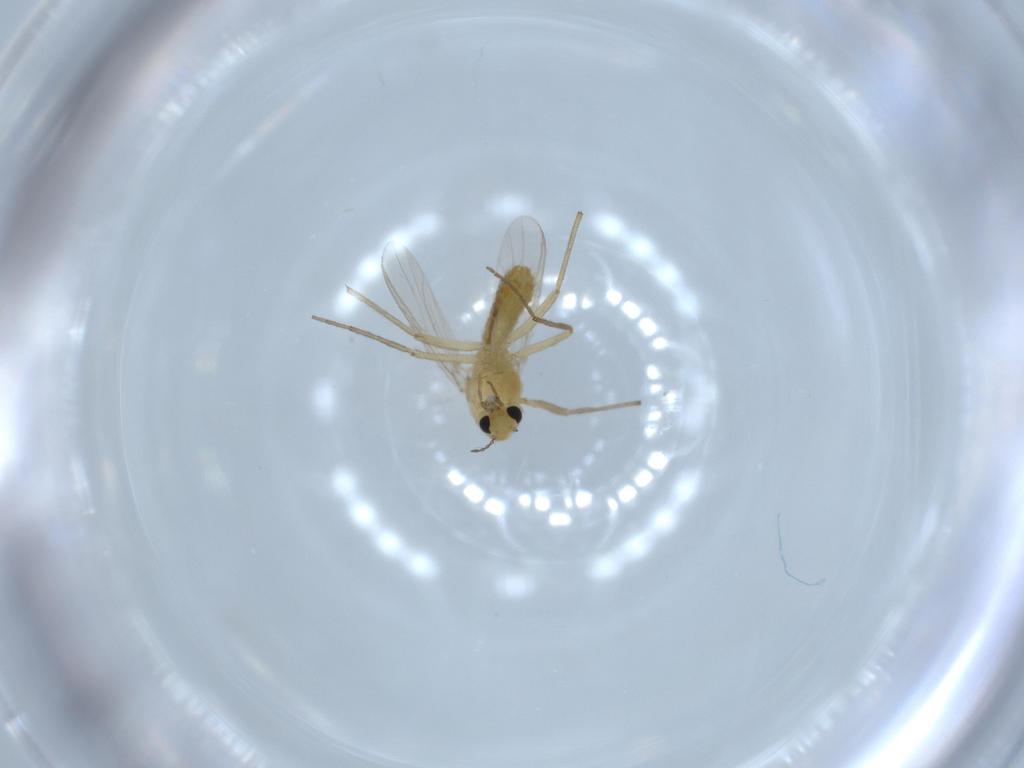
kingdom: Animalia
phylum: Arthropoda
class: Insecta
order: Diptera
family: Chironomidae
